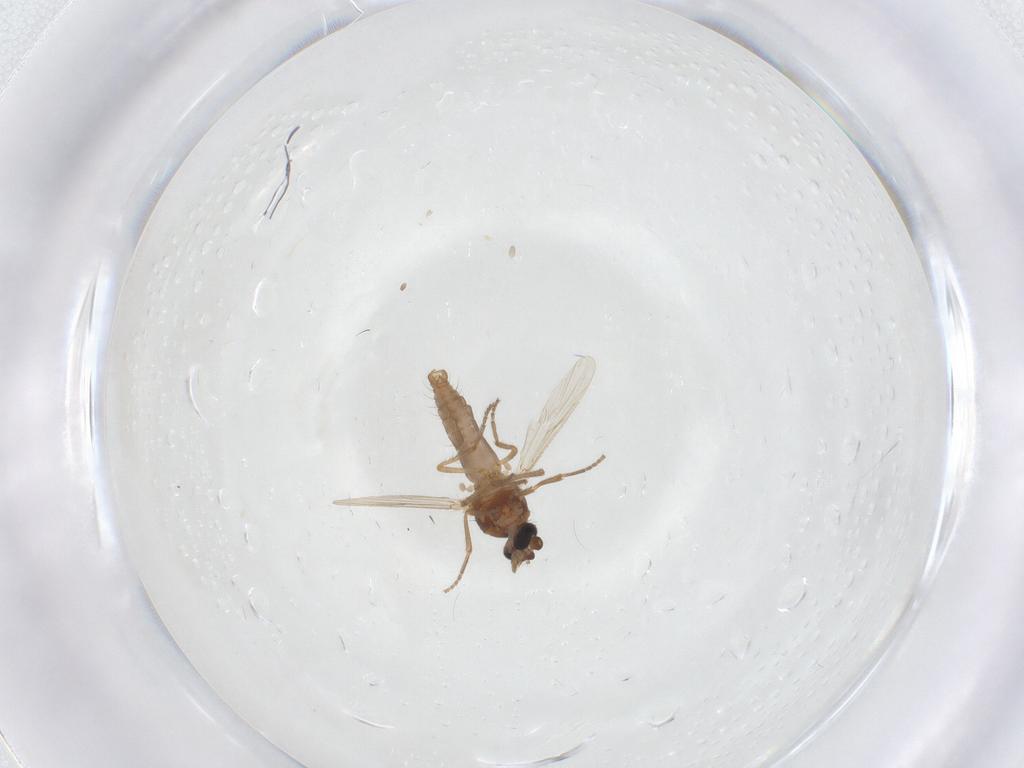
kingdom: Animalia
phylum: Arthropoda
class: Insecta
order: Diptera
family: Ceratopogonidae
